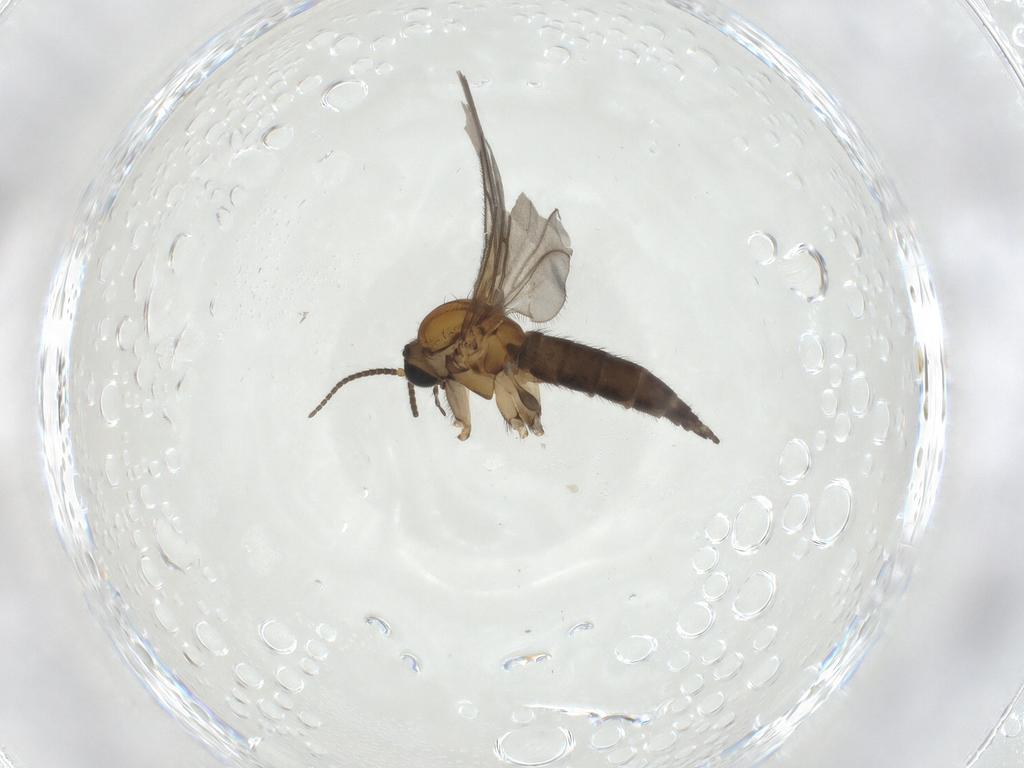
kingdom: Animalia
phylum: Arthropoda
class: Insecta
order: Diptera
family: Sciaridae
